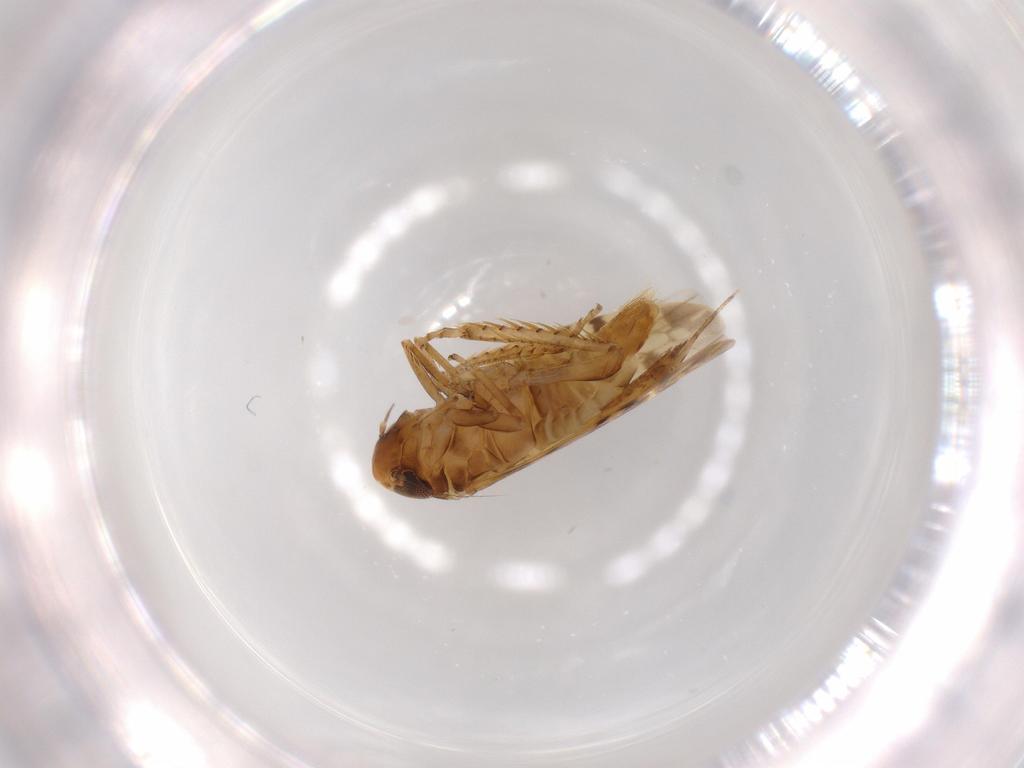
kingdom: Animalia
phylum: Arthropoda
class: Insecta
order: Hemiptera
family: Cicadellidae
